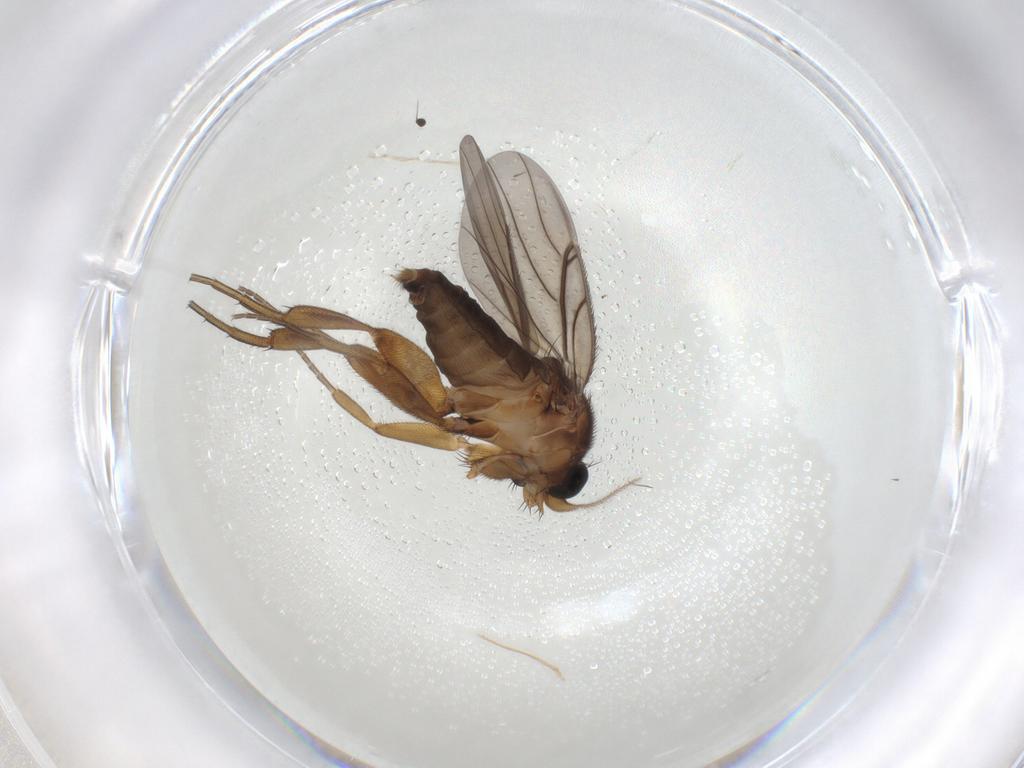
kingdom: Animalia
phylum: Arthropoda
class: Insecta
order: Diptera
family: Phoridae
